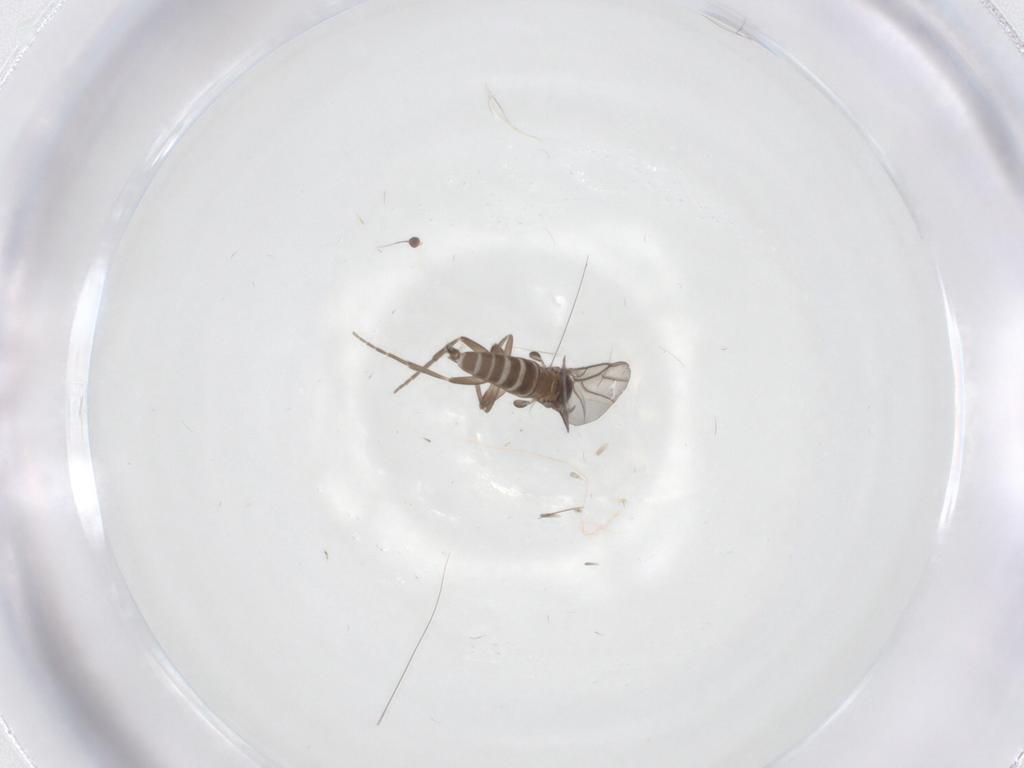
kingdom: Animalia
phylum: Arthropoda
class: Insecta
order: Diptera
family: Phoridae
